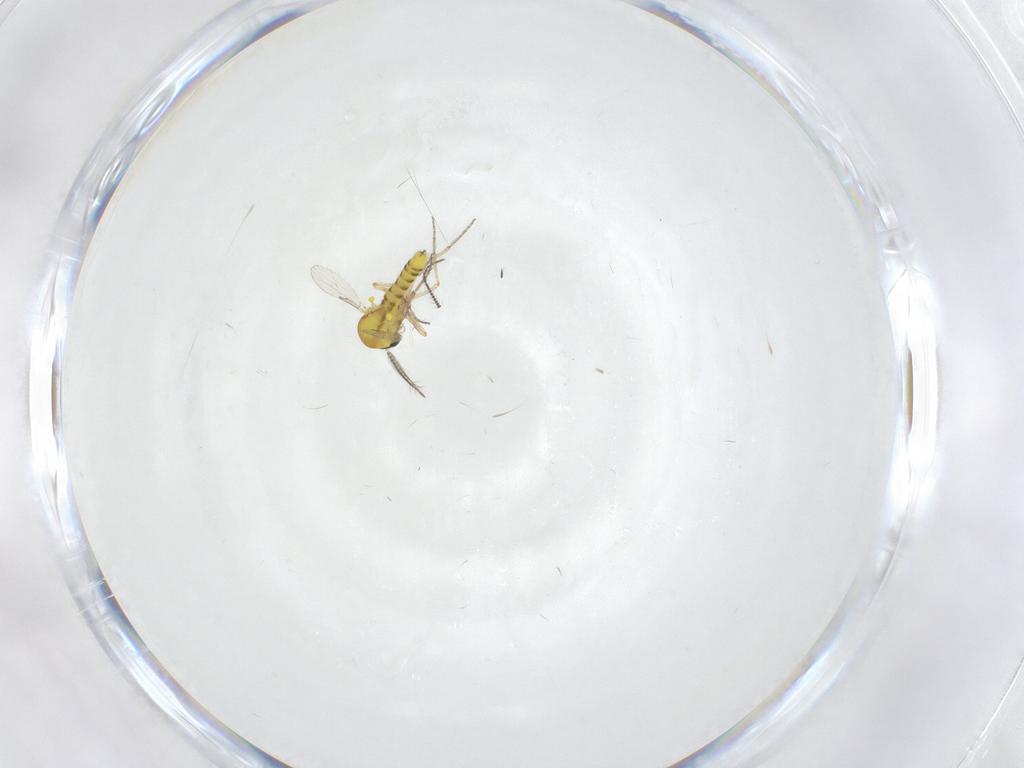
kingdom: Animalia
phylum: Arthropoda
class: Insecta
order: Diptera
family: Ceratopogonidae
